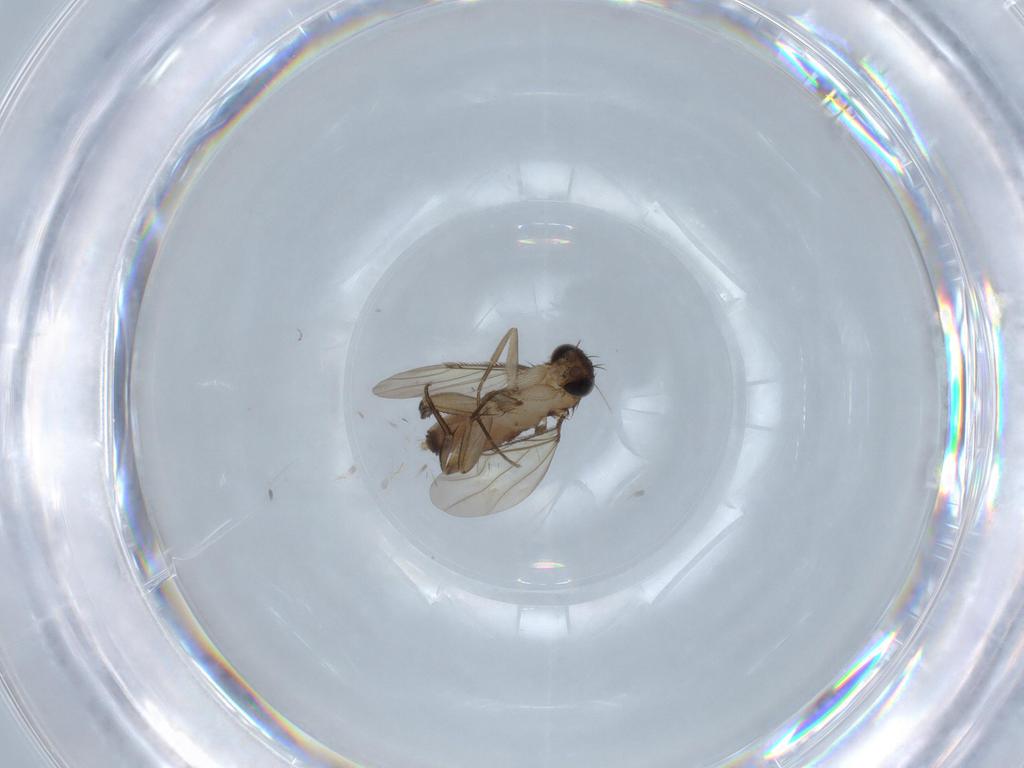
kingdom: Animalia
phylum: Arthropoda
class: Insecta
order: Diptera
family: Phoridae
